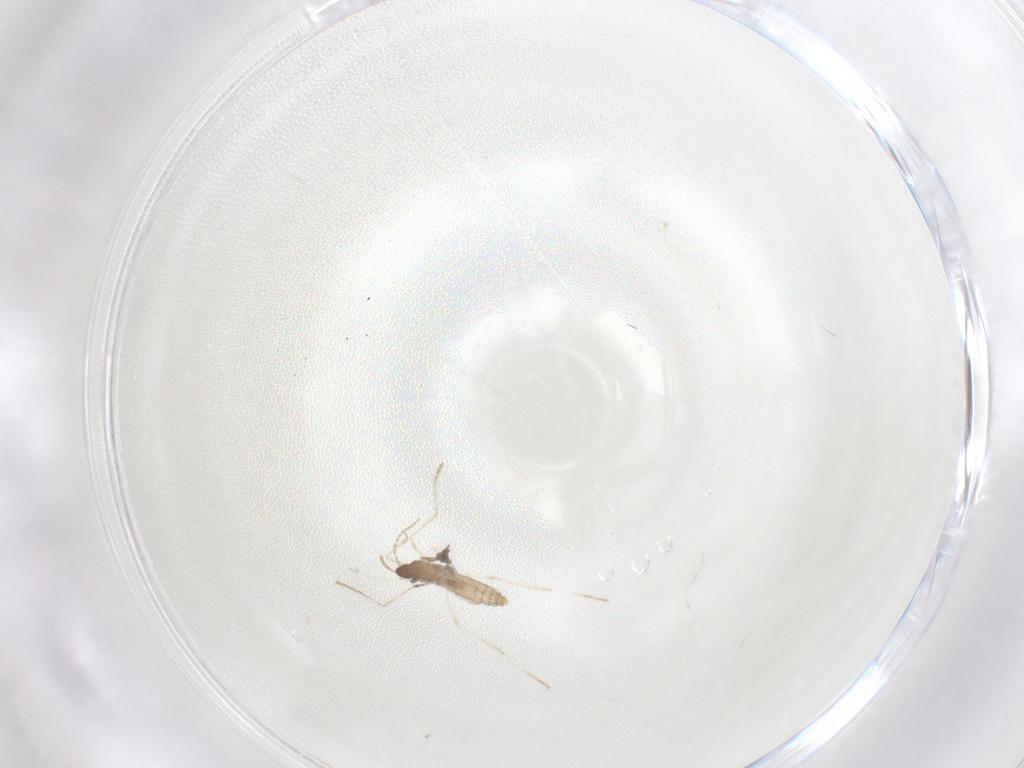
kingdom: Animalia
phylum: Arthropoda
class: Insecta
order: Diptera
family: Cecidomyiidae
